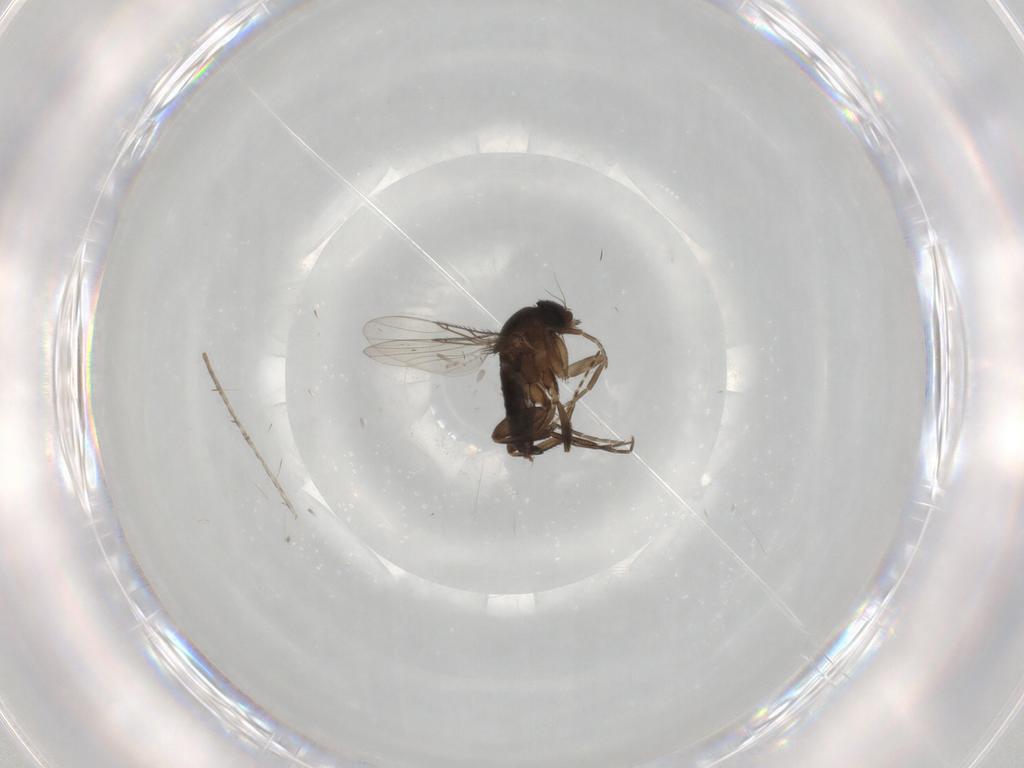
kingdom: Animalia
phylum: Arthropoda
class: Insecta
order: Diptera
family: Phoridae
